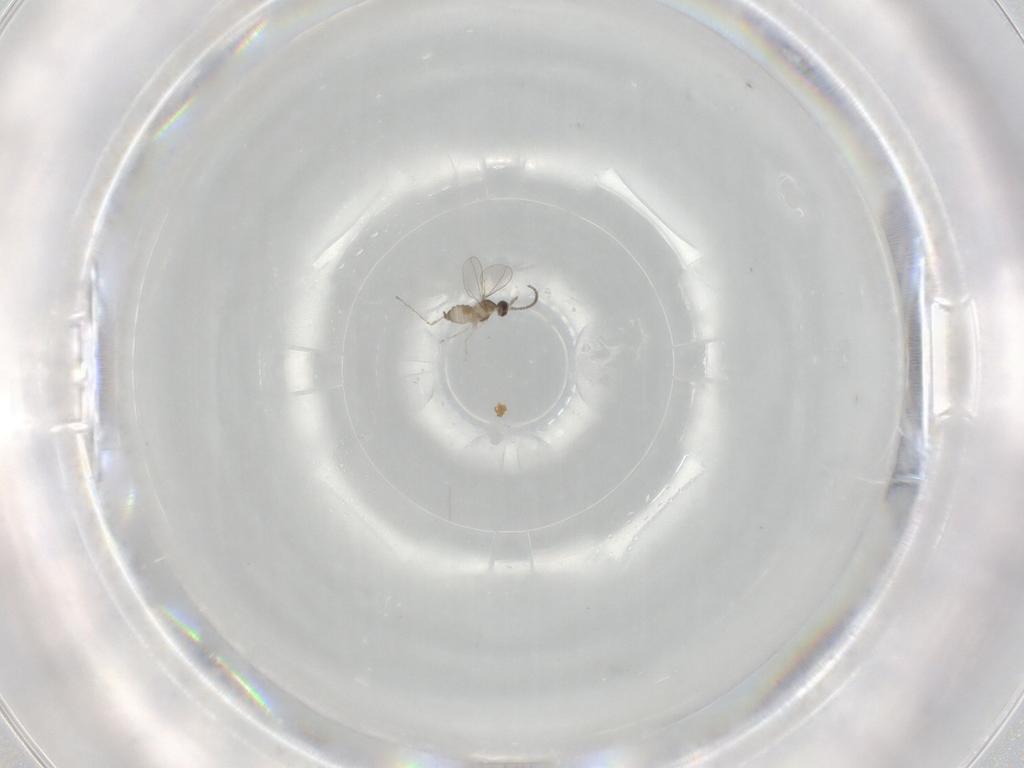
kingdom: Animalia
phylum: Arthropoda
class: Insecta
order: Diptera
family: Cecidomyiidae
